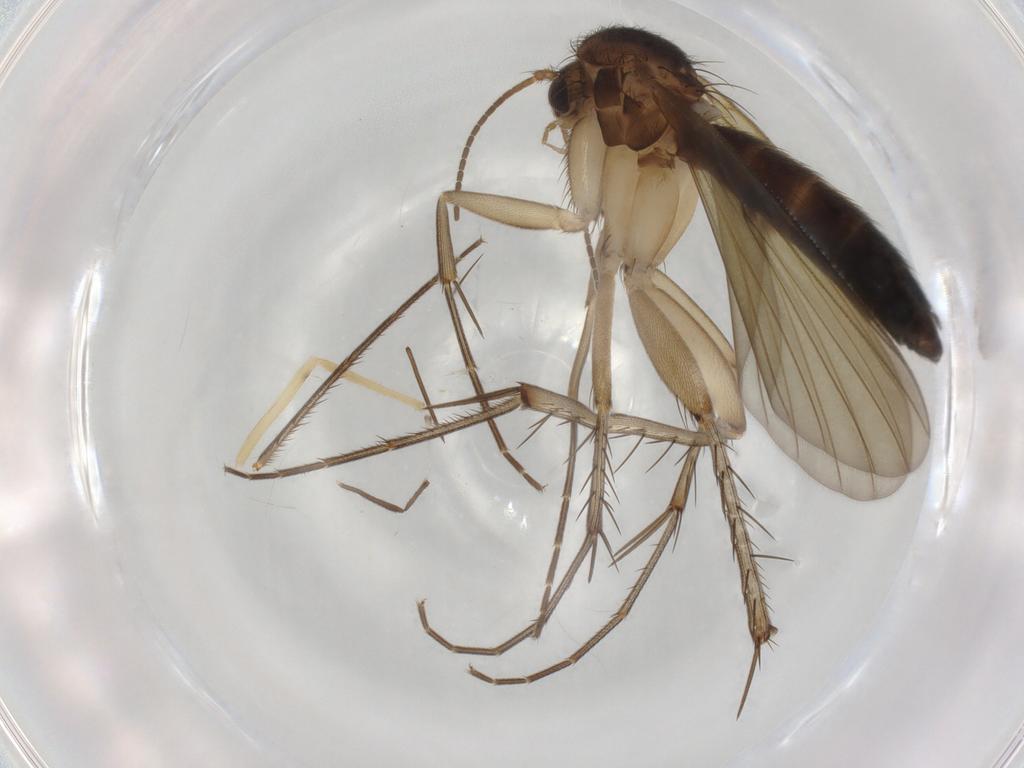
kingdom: Animalia
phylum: Arthropoda
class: Insecta
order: Diptera
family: Mycetophilidae
